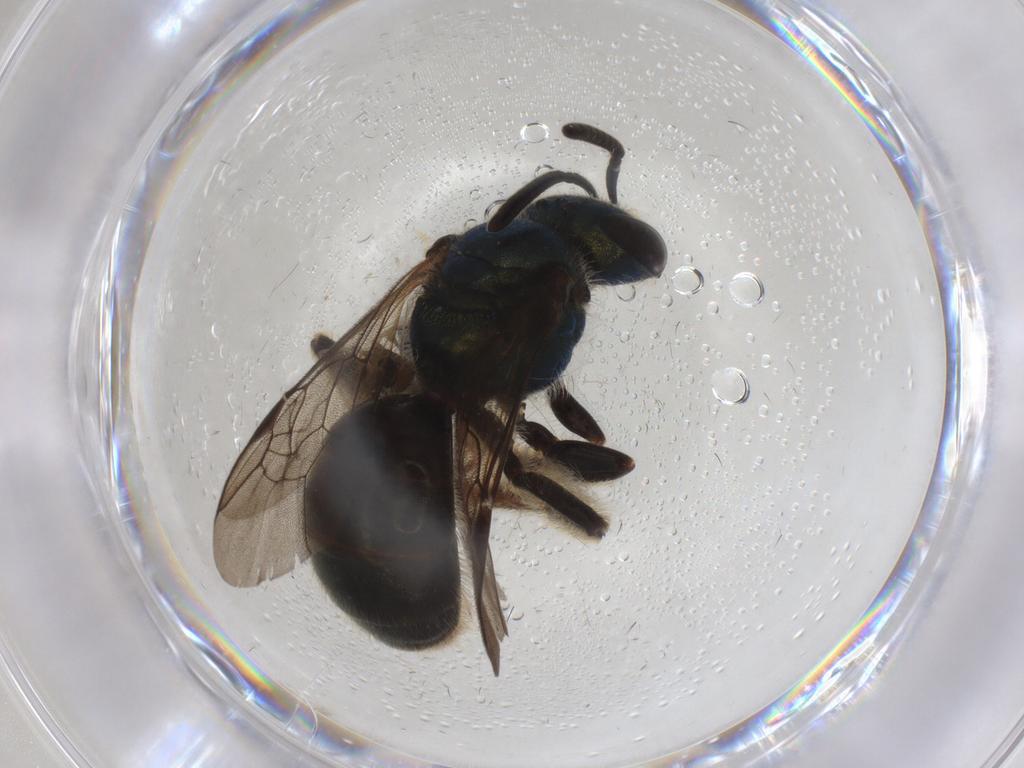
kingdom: Animalia
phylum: Arthropoda
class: Insecta
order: Hymenoptera
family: Halictidae
